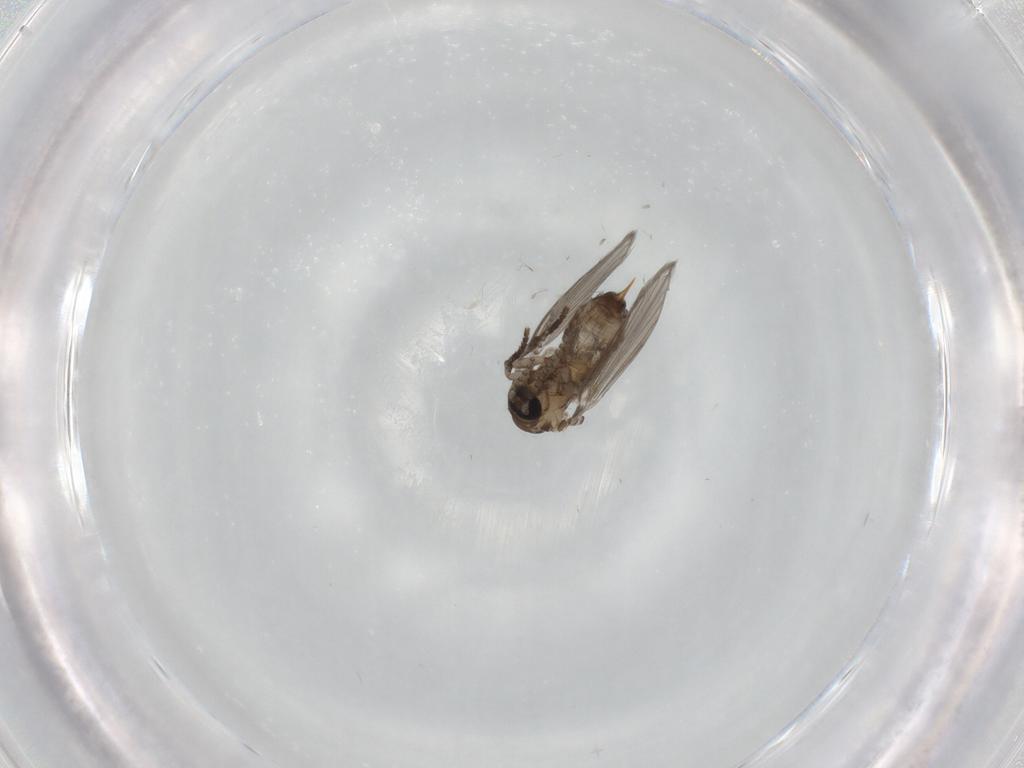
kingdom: Animalia
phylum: Arthropoda
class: Insecta
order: Diptera
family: Psychodidae
